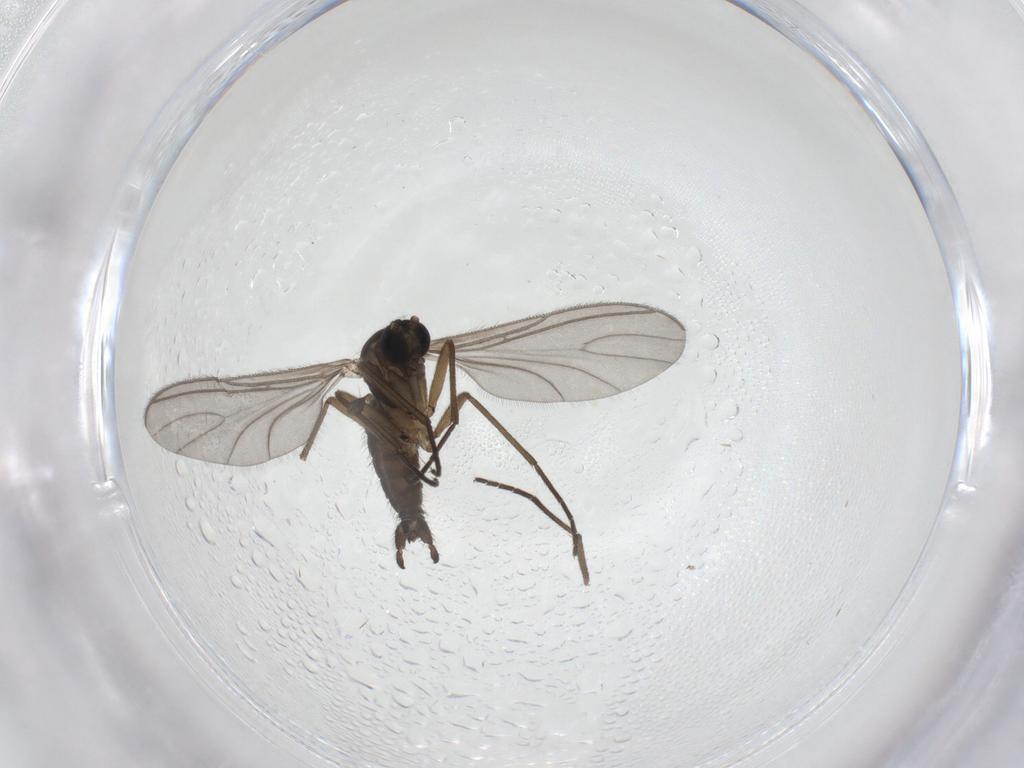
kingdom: Animalia
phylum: Arthropoda
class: Insecta
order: Diptera
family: Sciaridae
